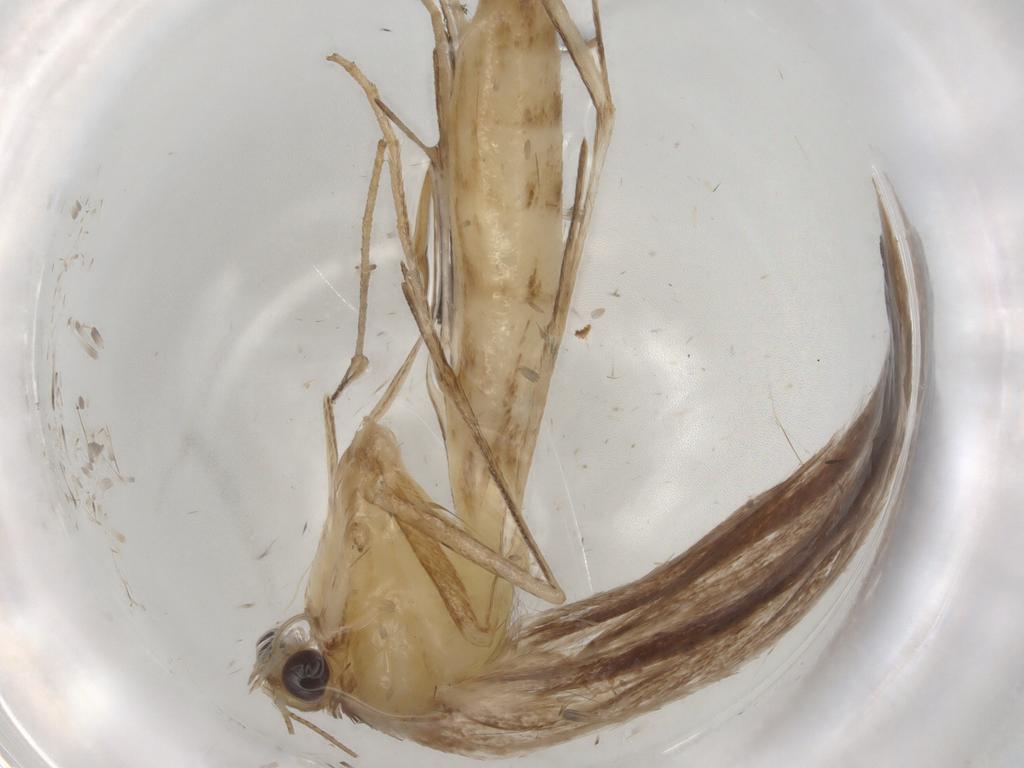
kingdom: Animalia
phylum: Arthropoda
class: Insecta
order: Lepidoptera
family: Elachistidae
